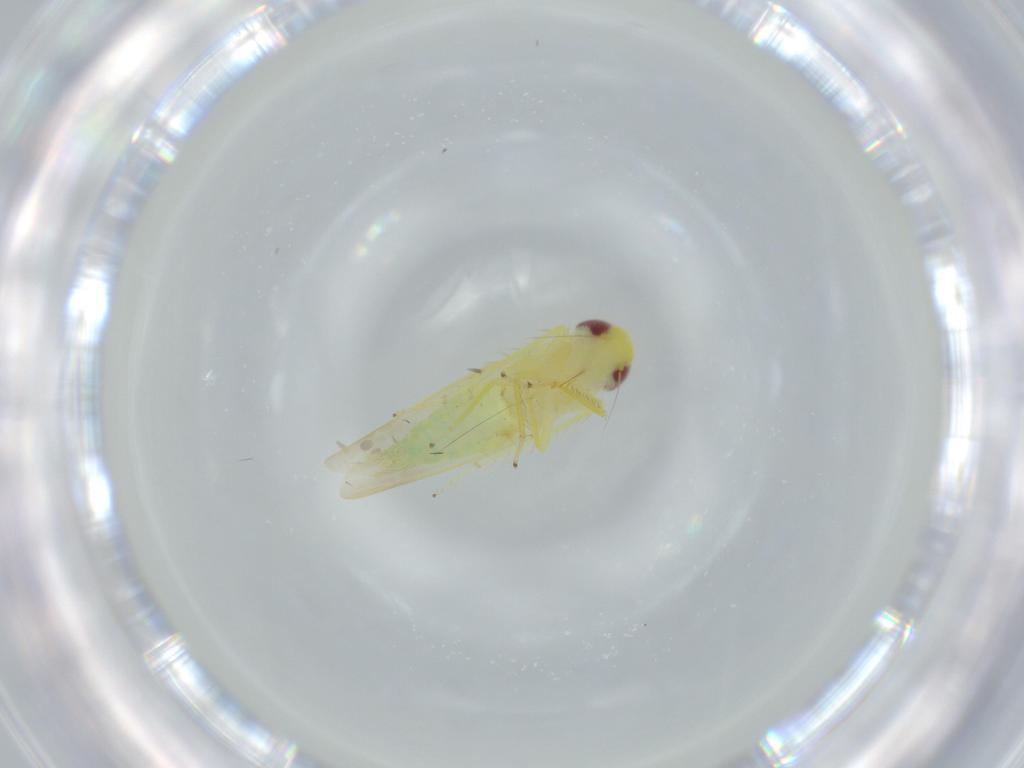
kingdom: Animalia
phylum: Arthropoda
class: Insecta
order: Hemiptera
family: Cicadellidae
